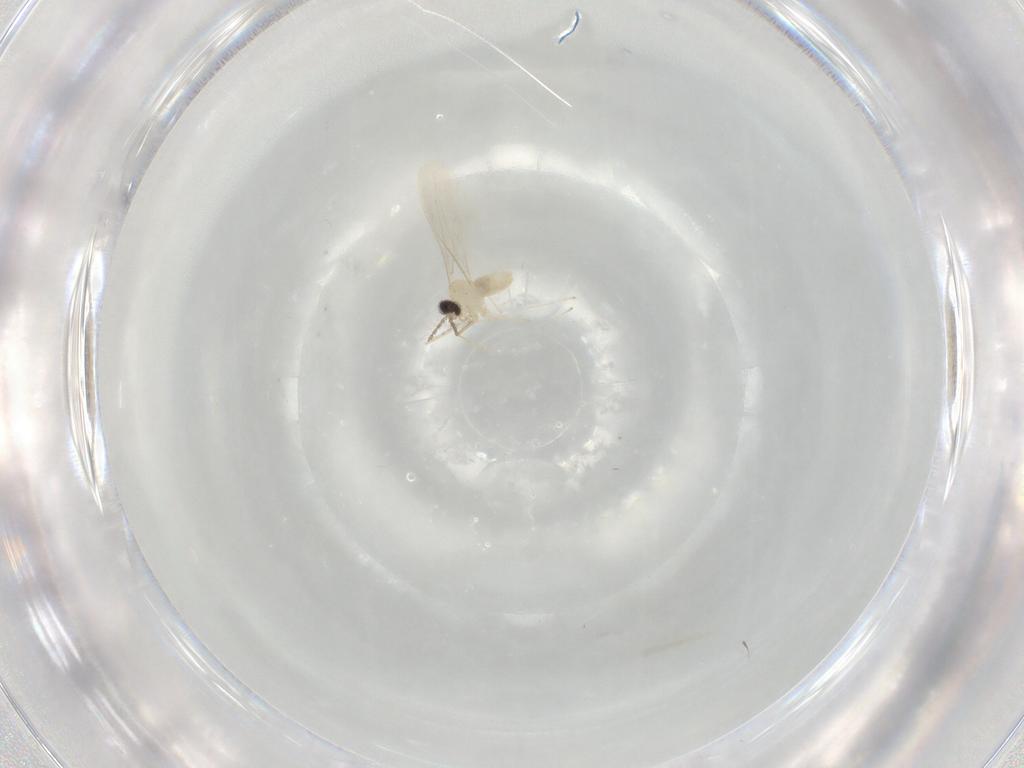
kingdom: Animalia
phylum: Arthropoda
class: Insecta
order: Diptera
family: Cecidomyiidae
